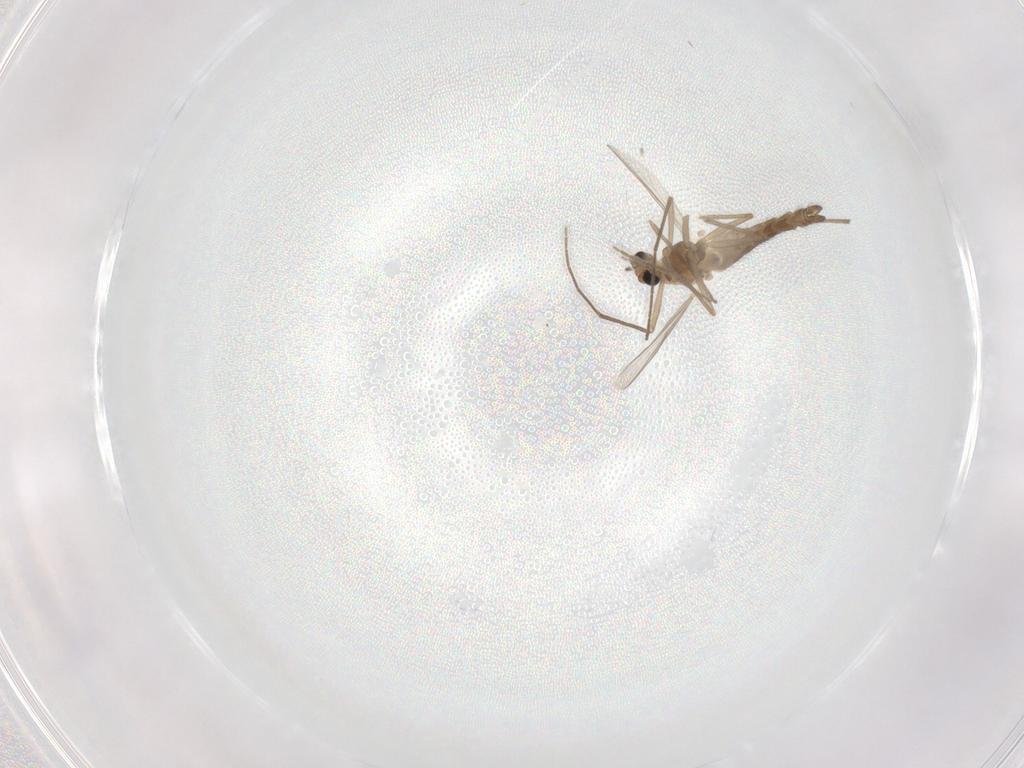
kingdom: Animalia
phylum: Arthropoda
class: Insecta
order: Diptera
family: Chironomidae
